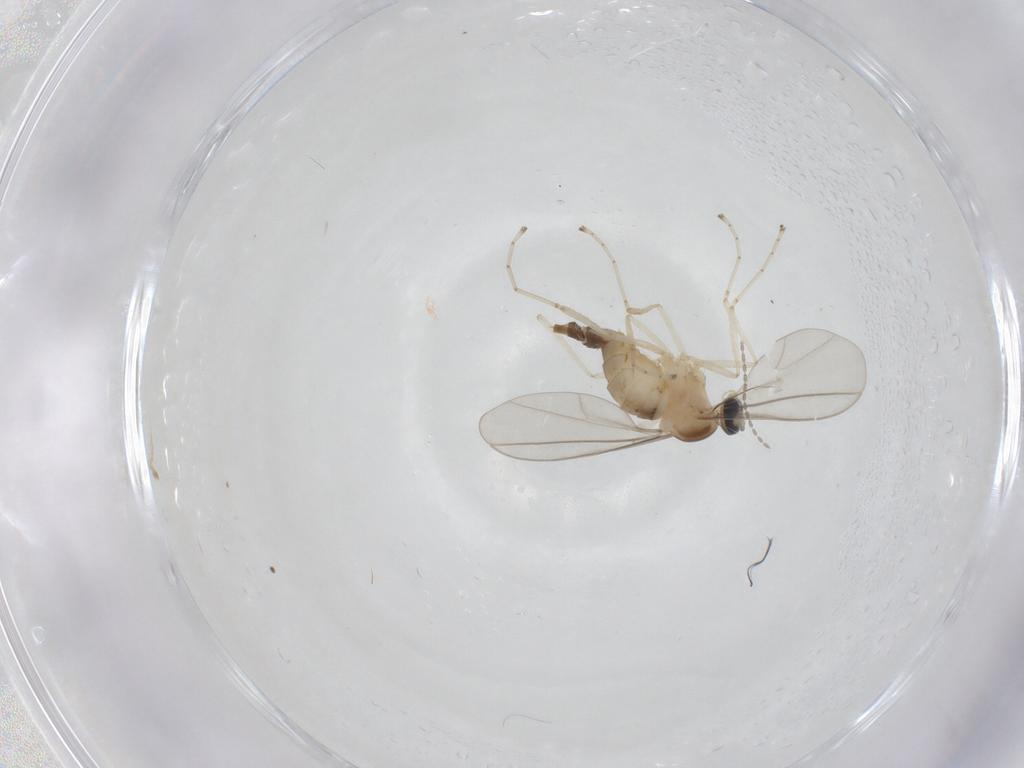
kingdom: Animalia
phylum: Arthropoda
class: Insecta
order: Diptera
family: Cecidomyiidae
